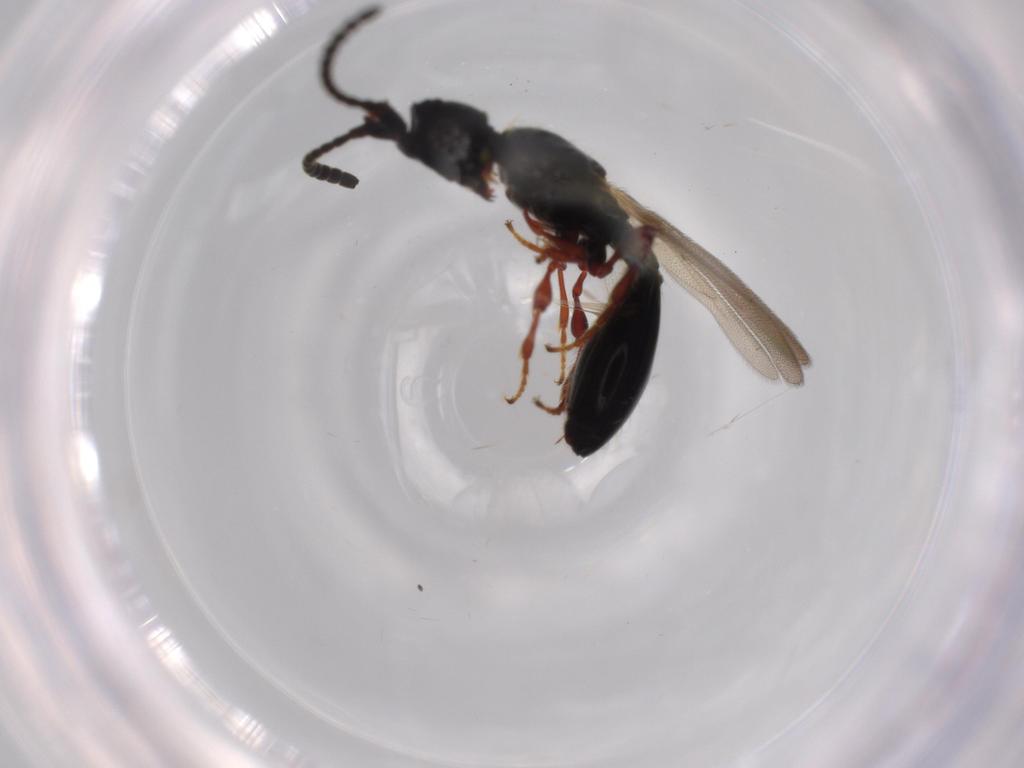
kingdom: Animalia
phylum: Arthropoda
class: Insecta
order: Hymenoptera
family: Diapriidae
